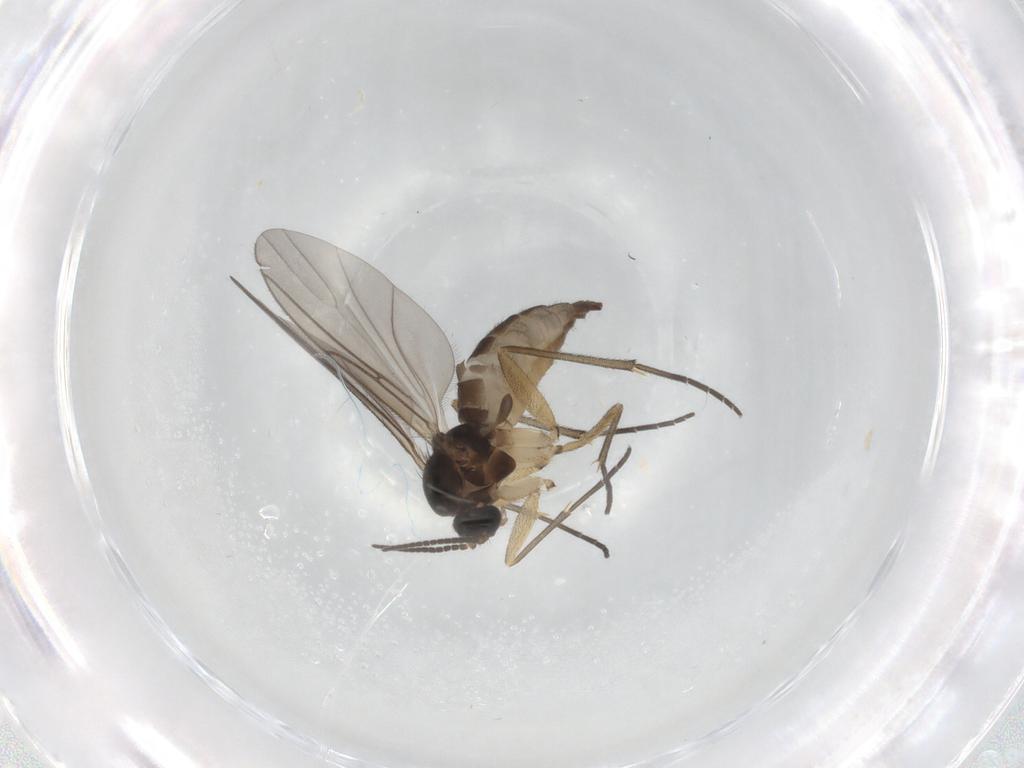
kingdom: Animalia
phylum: Arthropoda
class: Insecta
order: Diptera
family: Sciaridae
